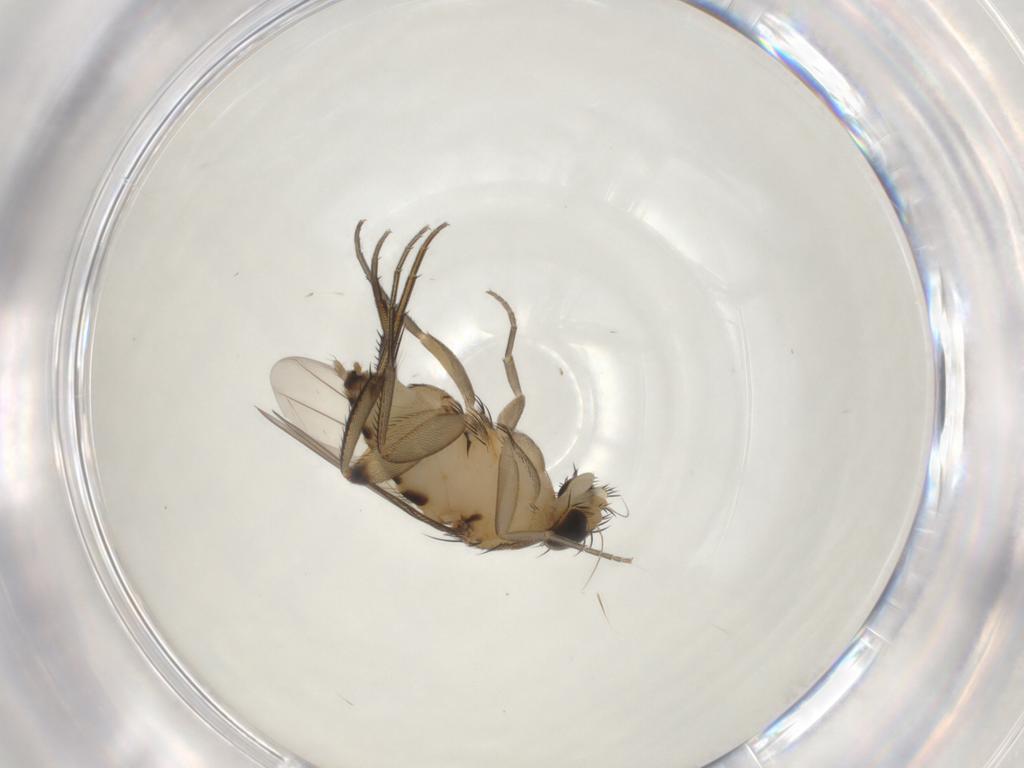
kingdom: Animalia
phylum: Arthropoda
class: Insecta
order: Diptera
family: Phoridae
